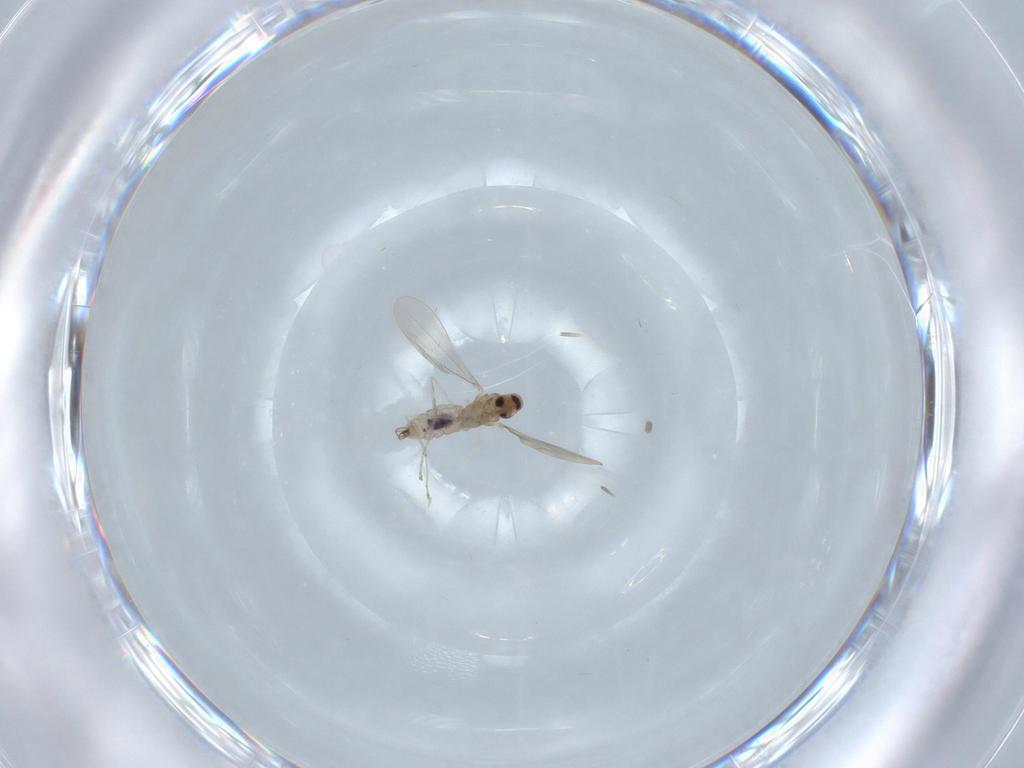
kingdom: Animalia
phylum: Arthropoda
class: Insecta
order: Diptera
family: Cecidomyiidae
